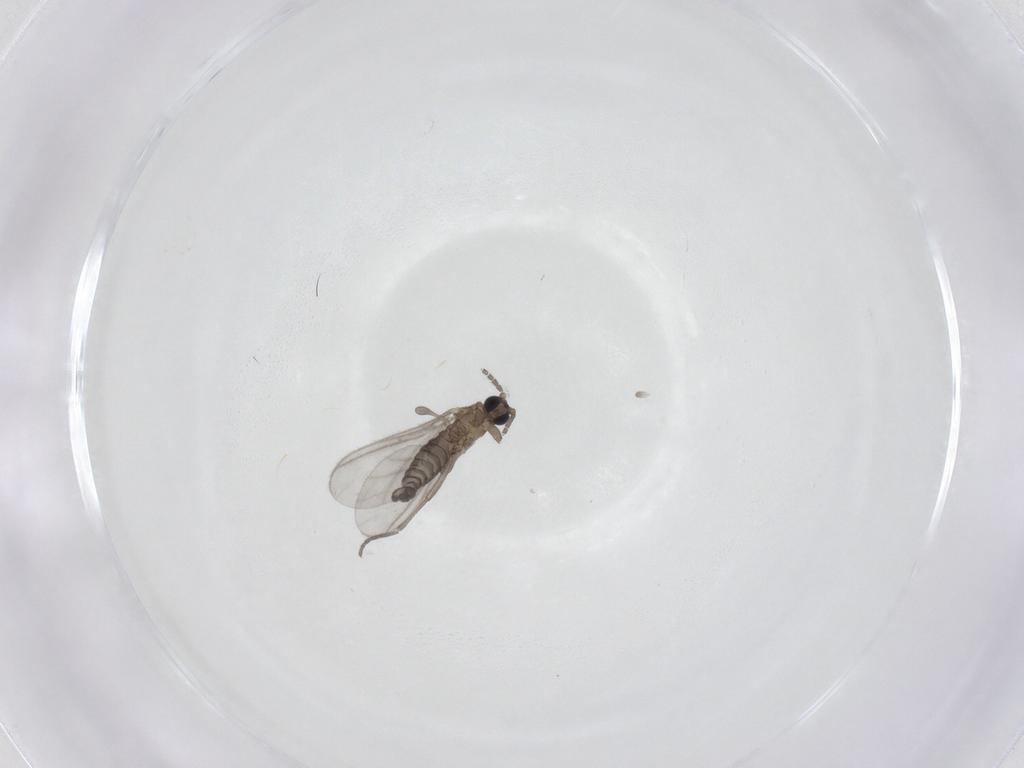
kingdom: Animalia
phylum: Arthropoda
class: Insecta
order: Diptera
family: Sciaridae
